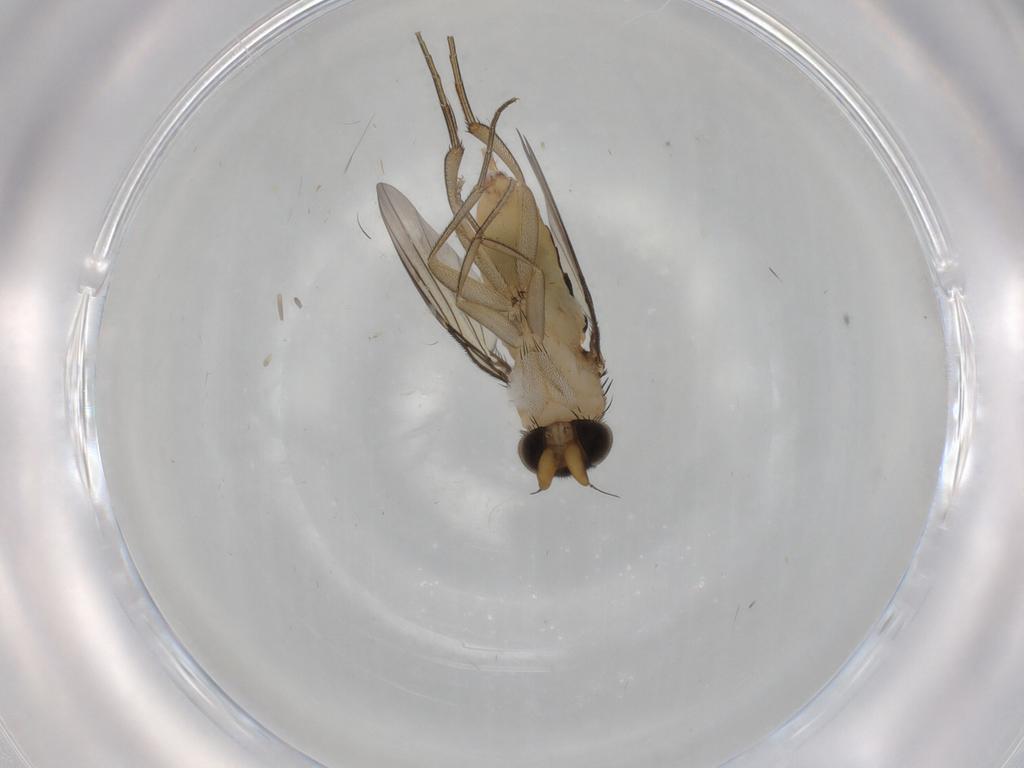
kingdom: Animalia
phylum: Arthropoda
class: Insecta
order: Diptera
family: Phoridae
